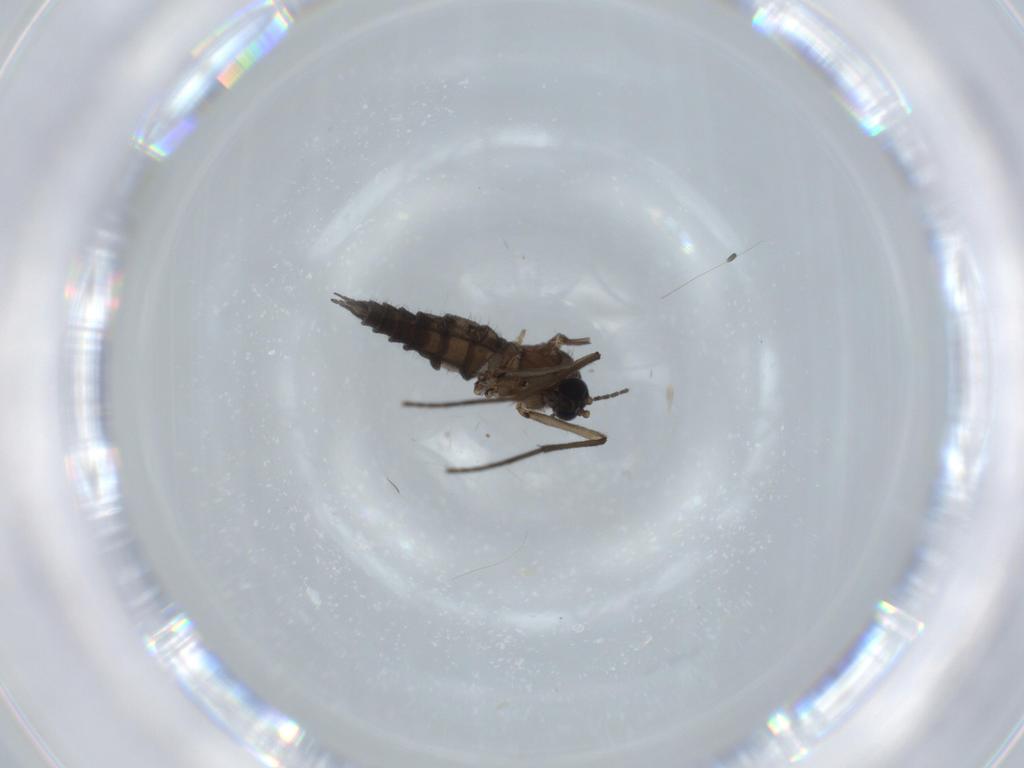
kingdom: Animalia
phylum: Arthropoda
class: Insecta
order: Diptera
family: Sciaridae
